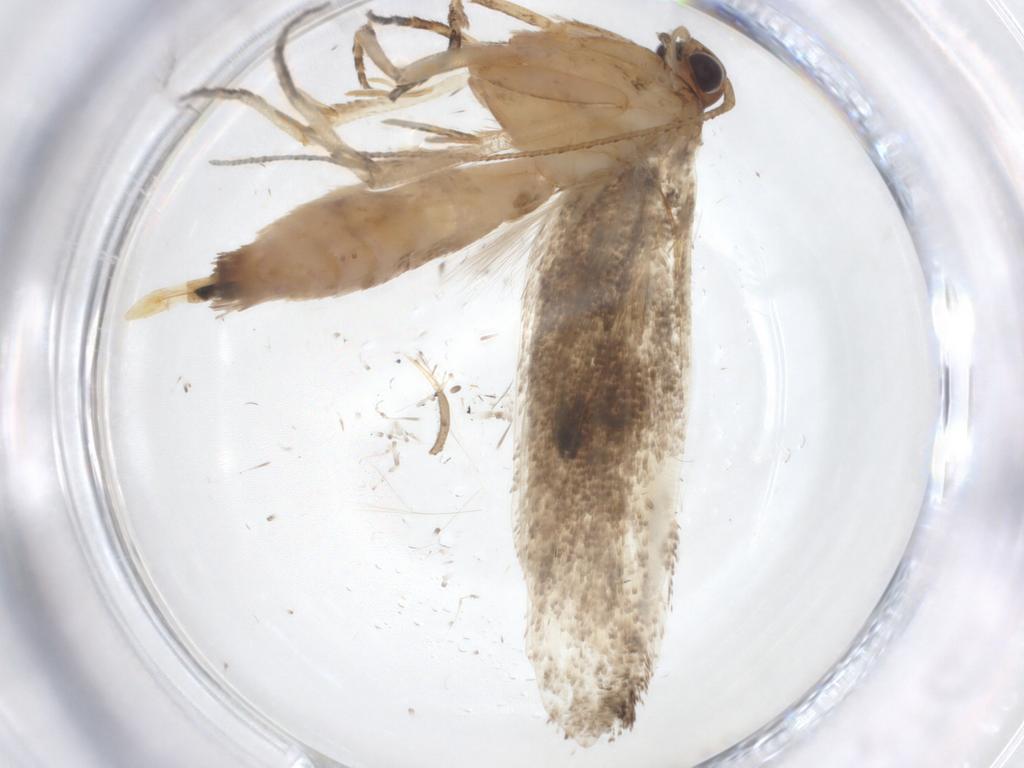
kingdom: Animalia
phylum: Arthropoda
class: Insecta
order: Lepidoptera
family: Gelechiidae
